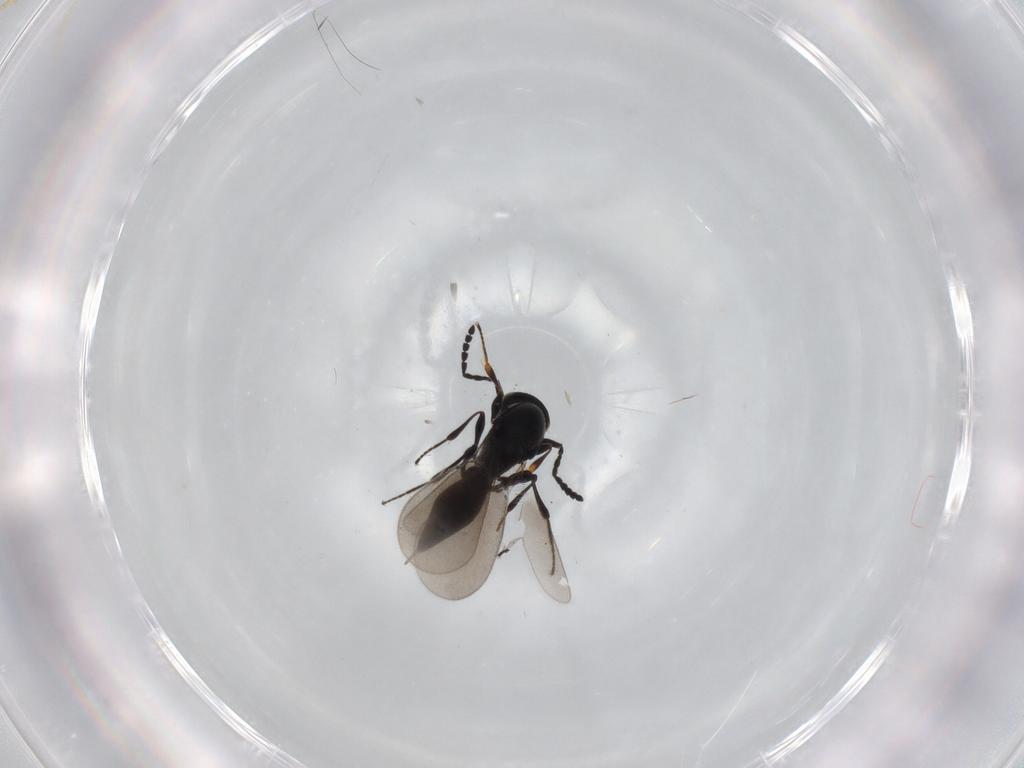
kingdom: Animalia
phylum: Arthropoda
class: Insecta
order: Hymenoptera
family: Platygastridae
